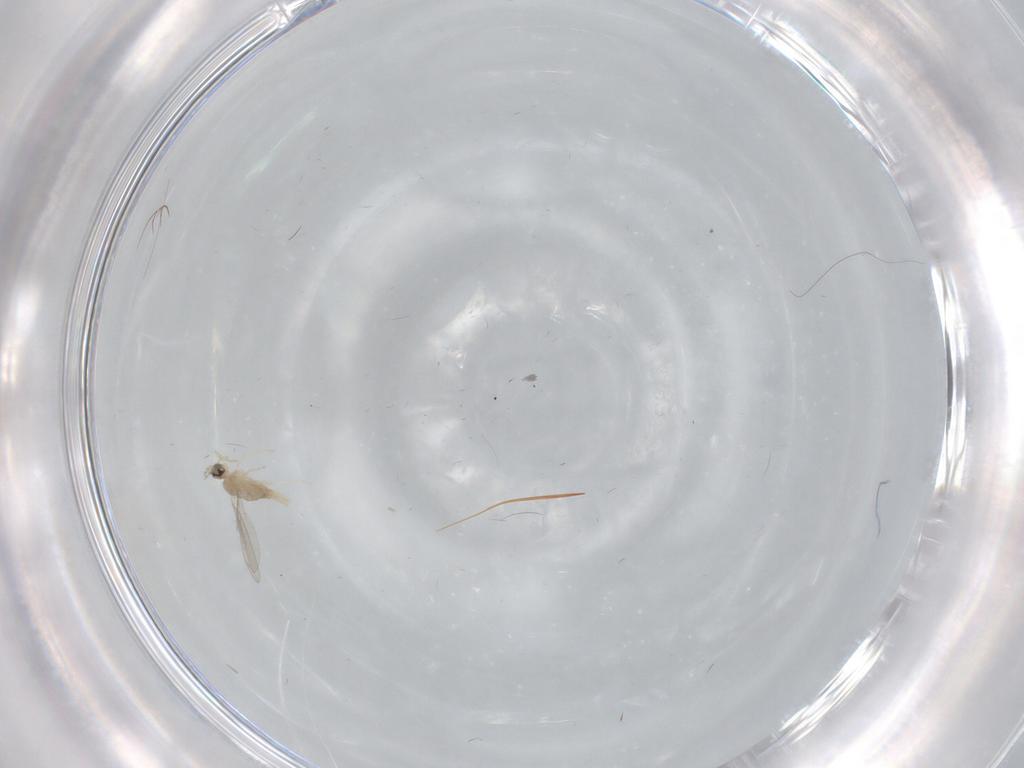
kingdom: Animalia
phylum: Arthropoda
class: Insecta
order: Diptera
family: Cecidomyiidae
